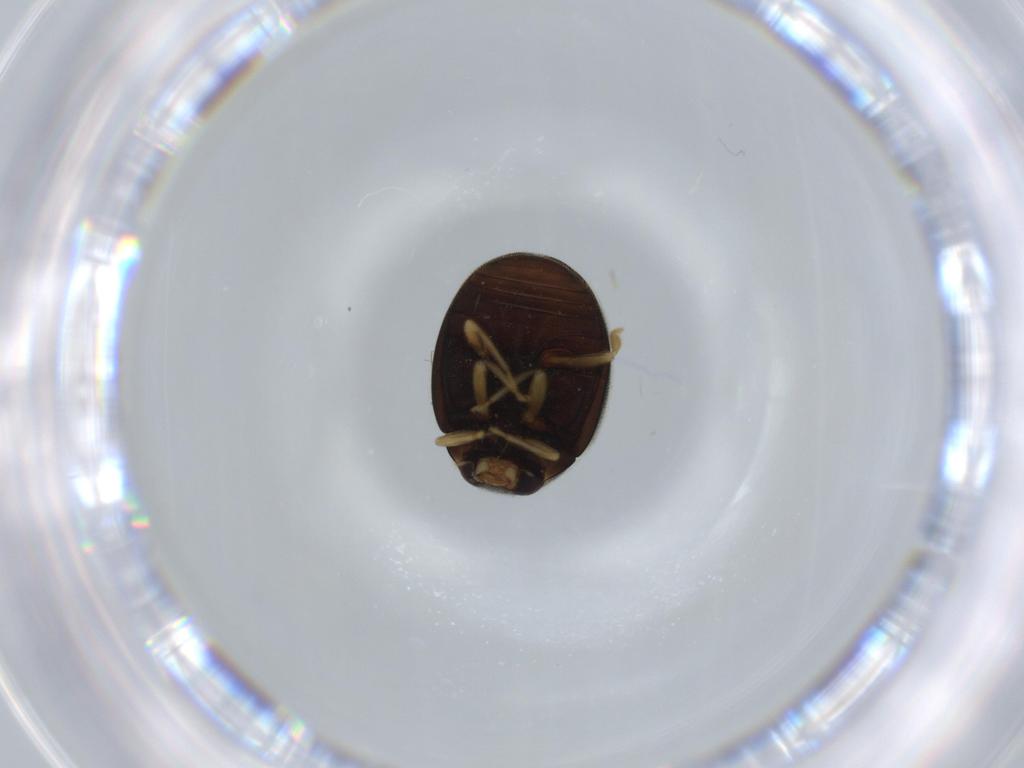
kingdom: Animalia
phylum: Arthropoda
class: Insecta
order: Coleoptera
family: Coccinellidae
